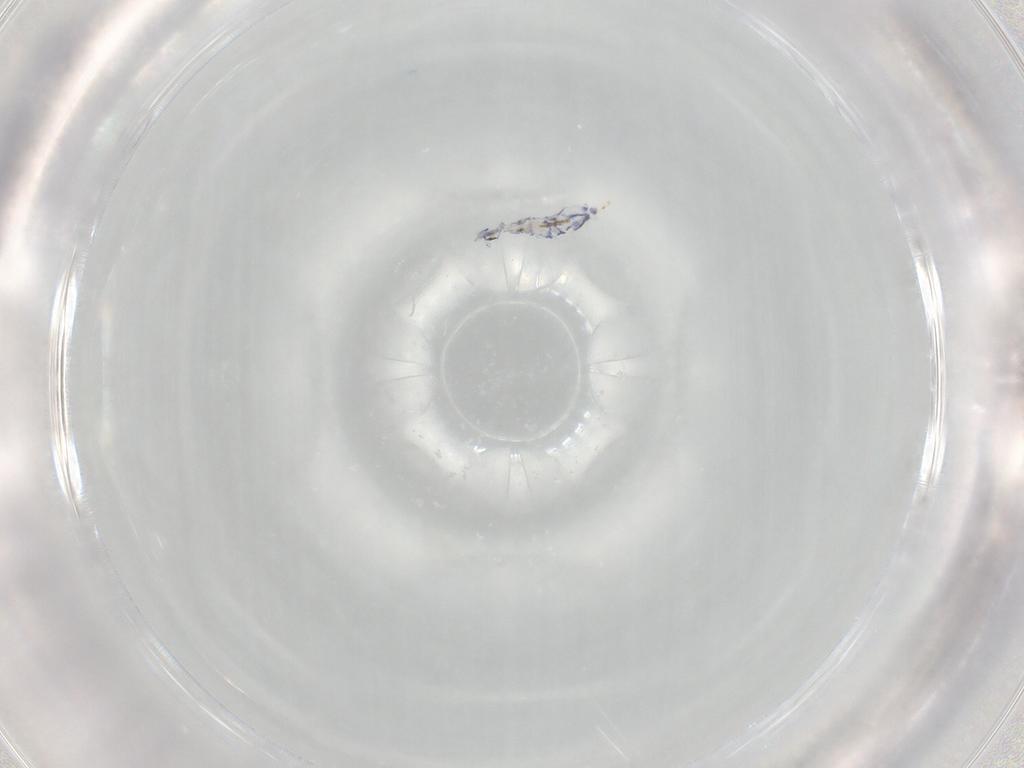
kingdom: Animalia
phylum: Arthropoda
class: Collembola
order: Entomobryomorpha
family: Entomobryidae
